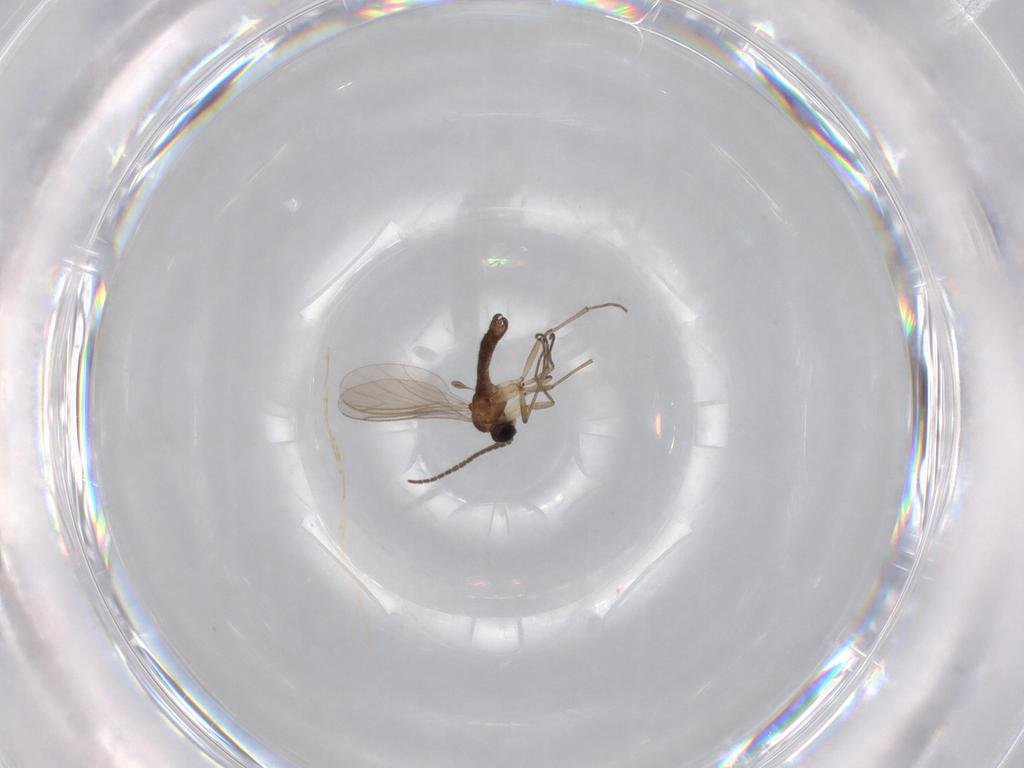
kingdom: Animalia
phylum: Arthropoda
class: Insecta
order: Diptera
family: Sciaridae
